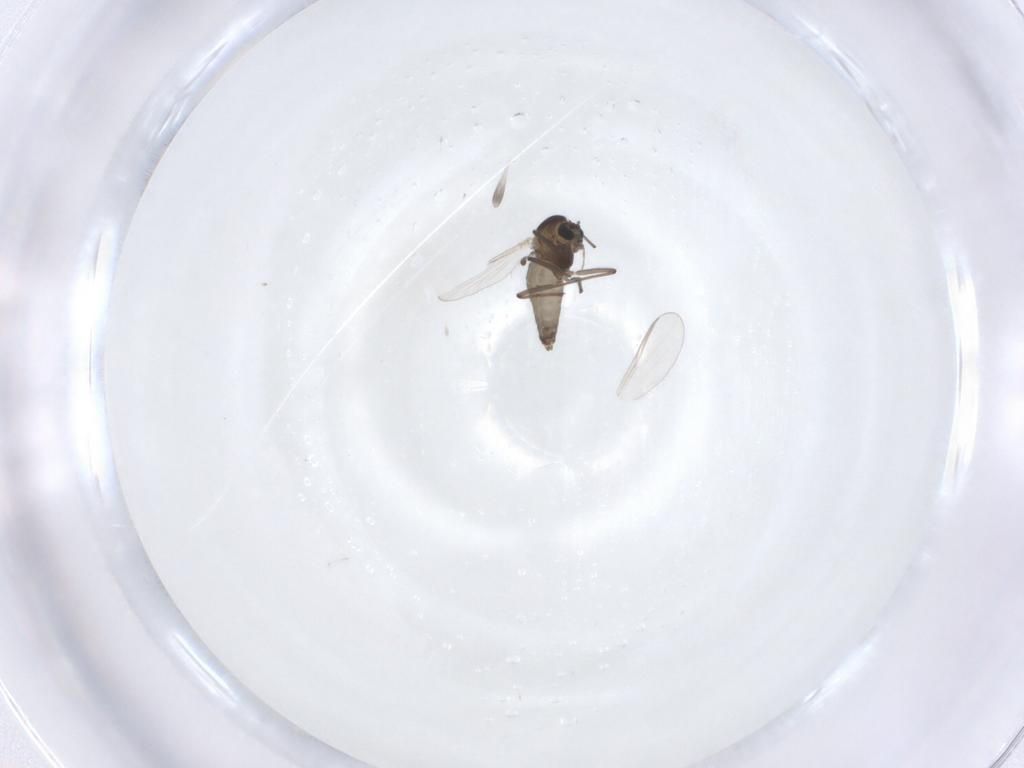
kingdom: Animalia
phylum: Arthropoda
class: Insecta
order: Diptera
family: Chironomidae
